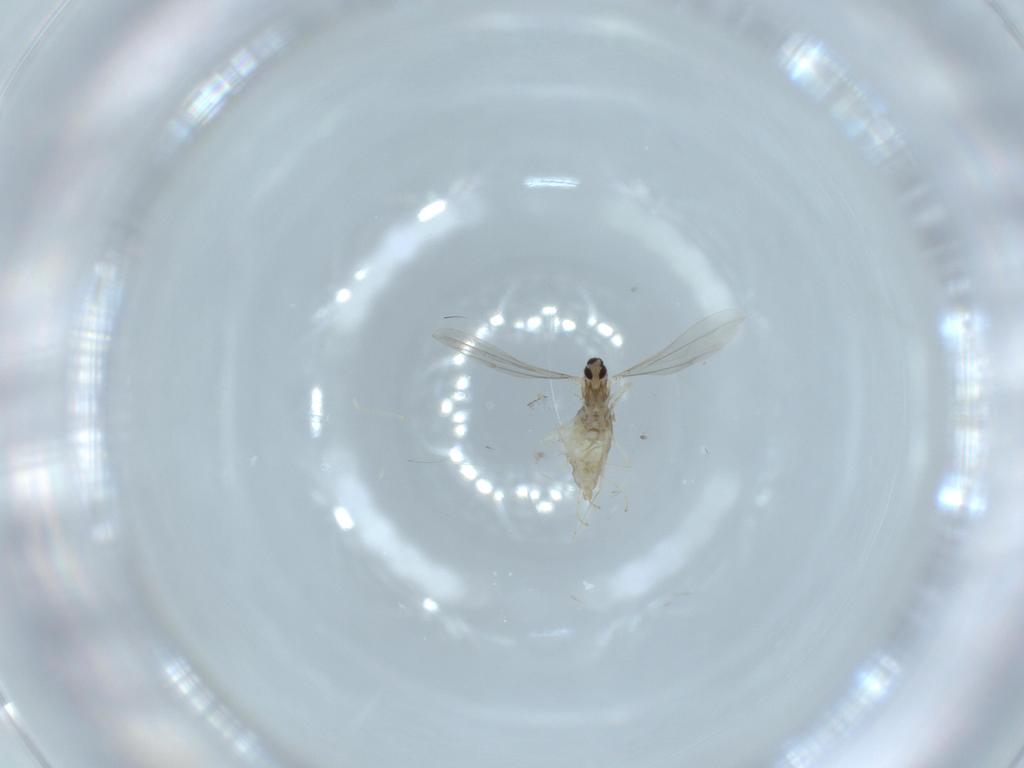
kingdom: Animalia
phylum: Arthropoda
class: Insecta
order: Diptera
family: Cecidomyiidae
